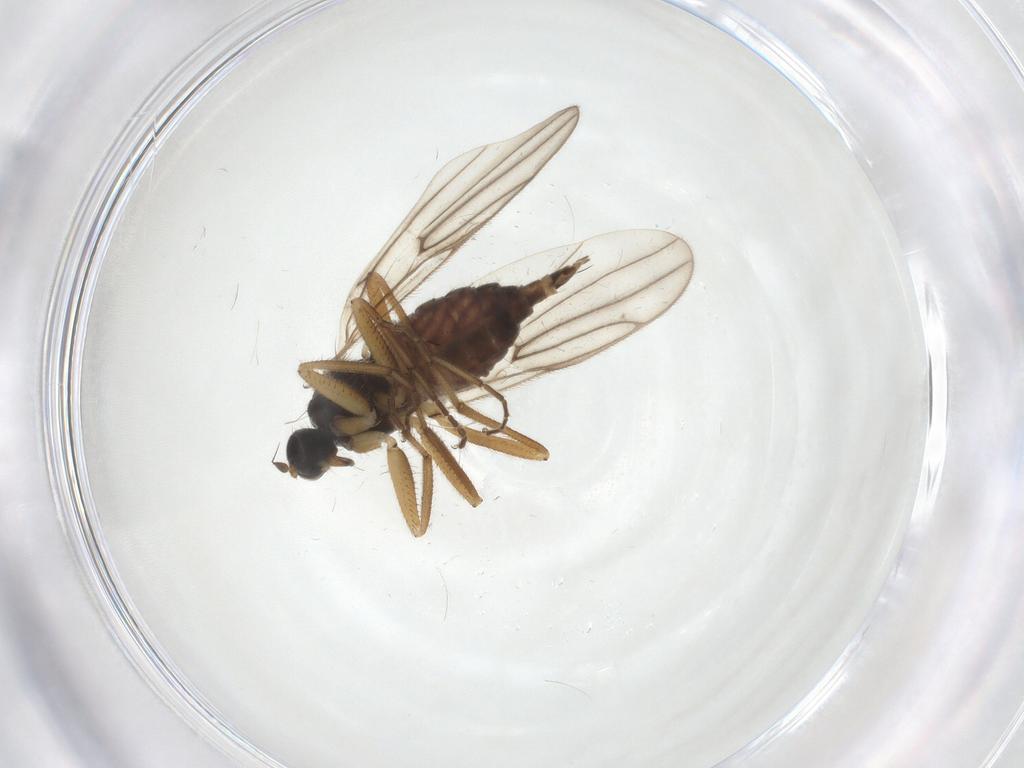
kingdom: Animalia
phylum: Arthropoda
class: Insecta
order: Diptera
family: Hybotidae
